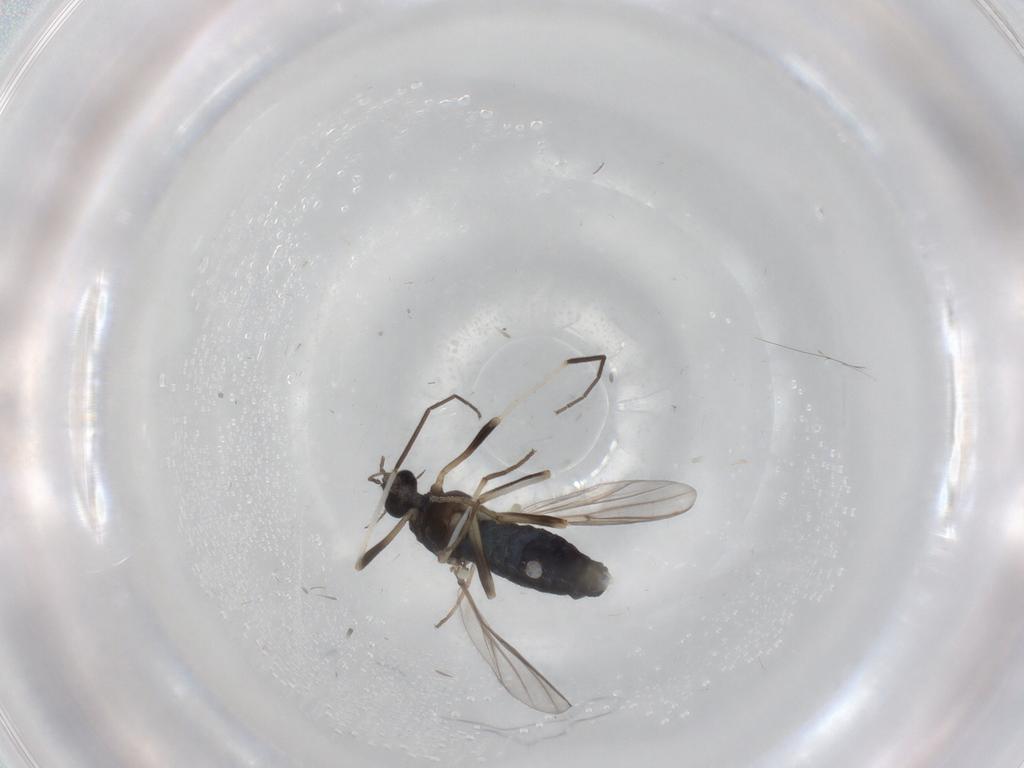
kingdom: Animalia
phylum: Arthropoda
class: Insecta
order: Diptera
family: Chironomidae
